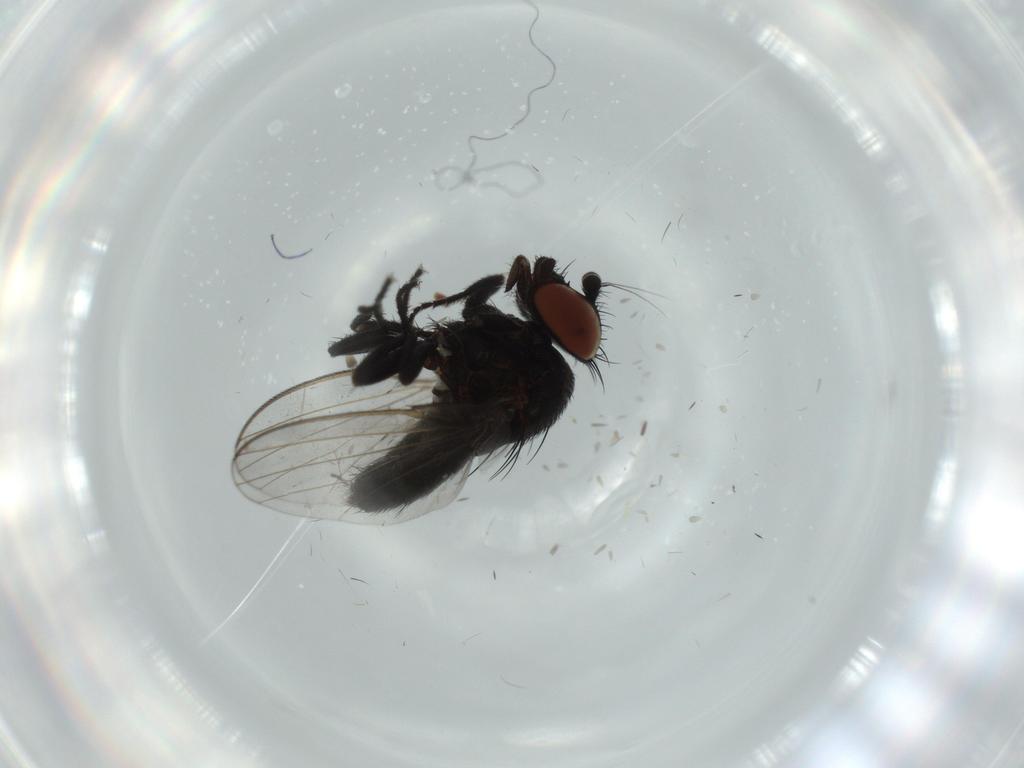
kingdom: Animalia
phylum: Arthropoda
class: Insecta
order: Diptera
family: Milichiidae
